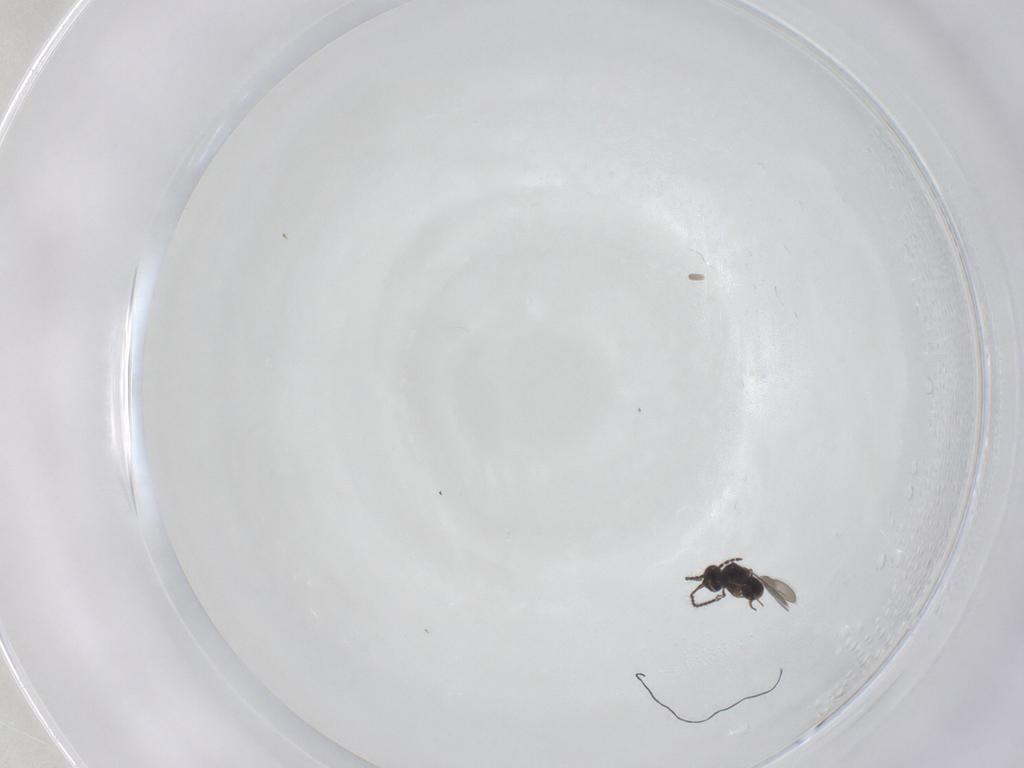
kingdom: Animalia
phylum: Arthropoda
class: Insecta
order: Hymenoptera
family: Ceraphronidae
